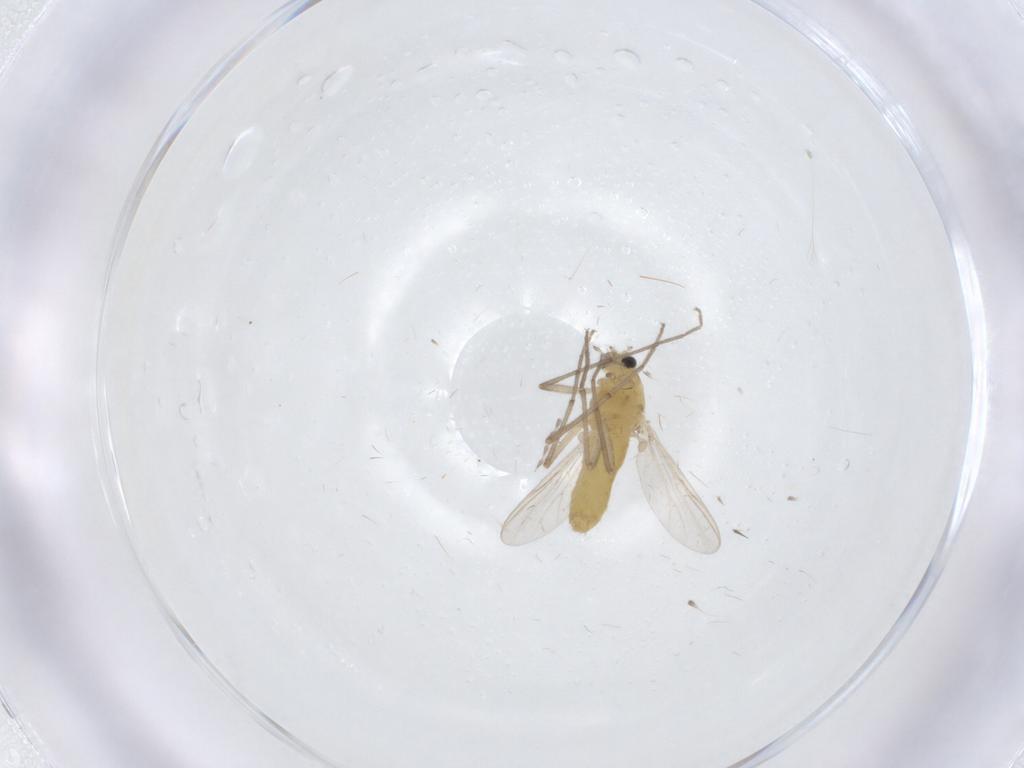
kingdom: Animalia
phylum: Arthropoda
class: Insecta
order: Diptera
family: Chironomidae
